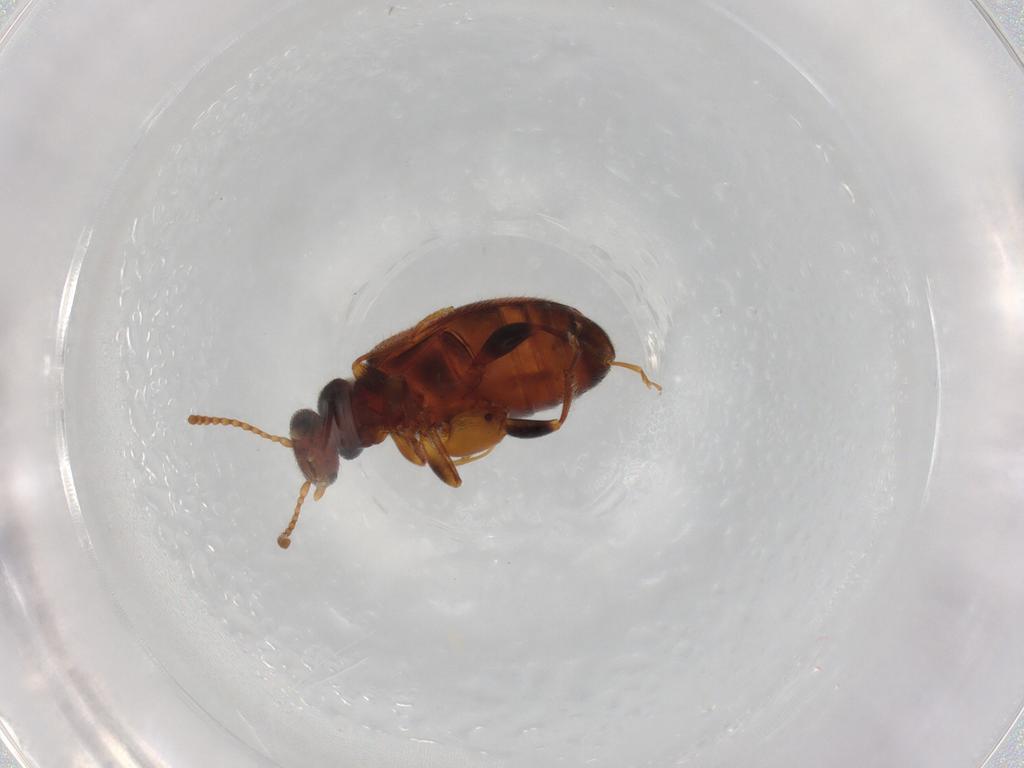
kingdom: Animalia
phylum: Arthropoda
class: Insecta
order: Coleoptera
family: Anthicidae
